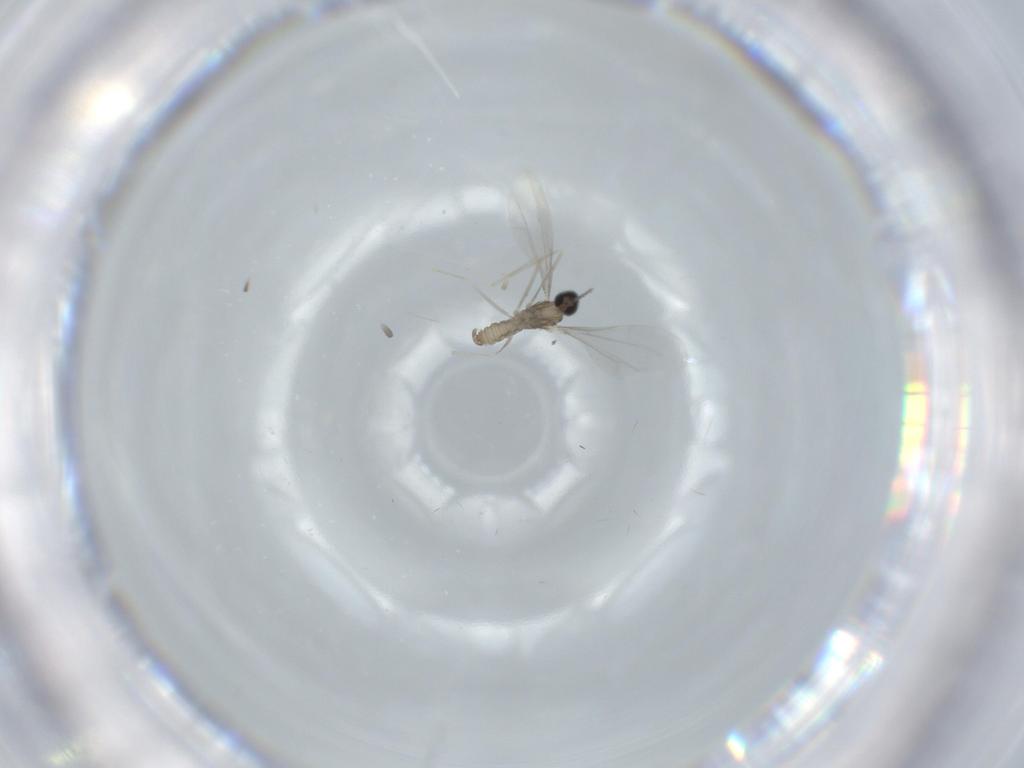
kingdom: Animalia
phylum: Arthropoda
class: Insecta
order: Diptera
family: Cecidomyiidae
